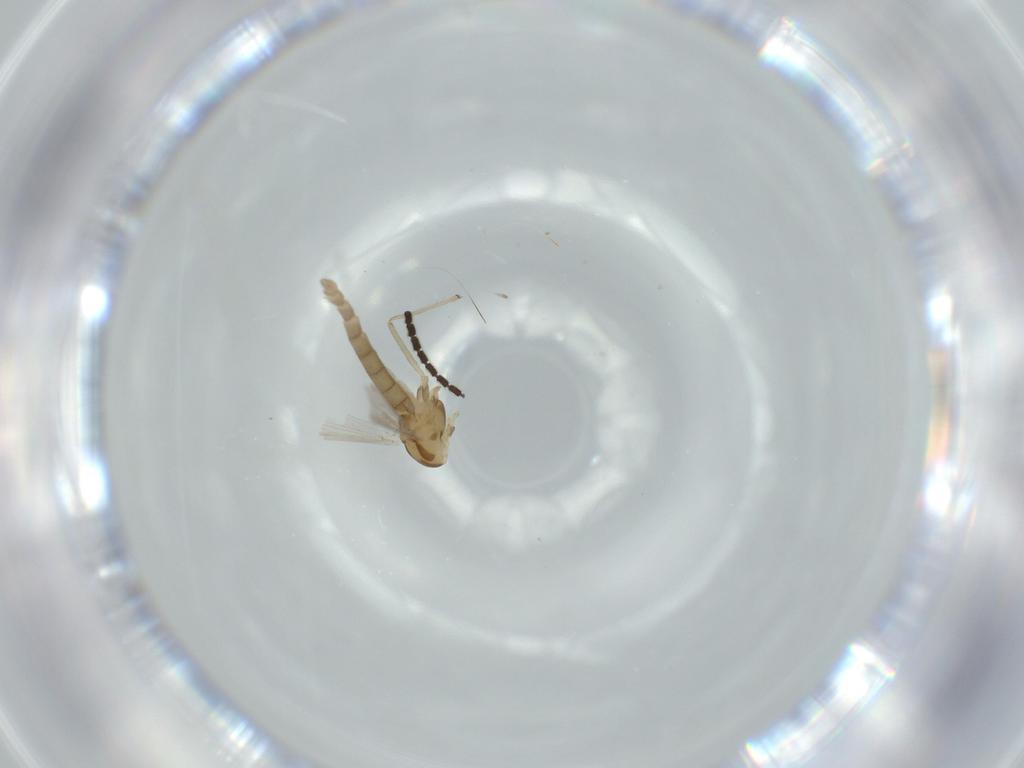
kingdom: Animalia
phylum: Arthropoda
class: Insecta
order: Diptera
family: Chironomidae
